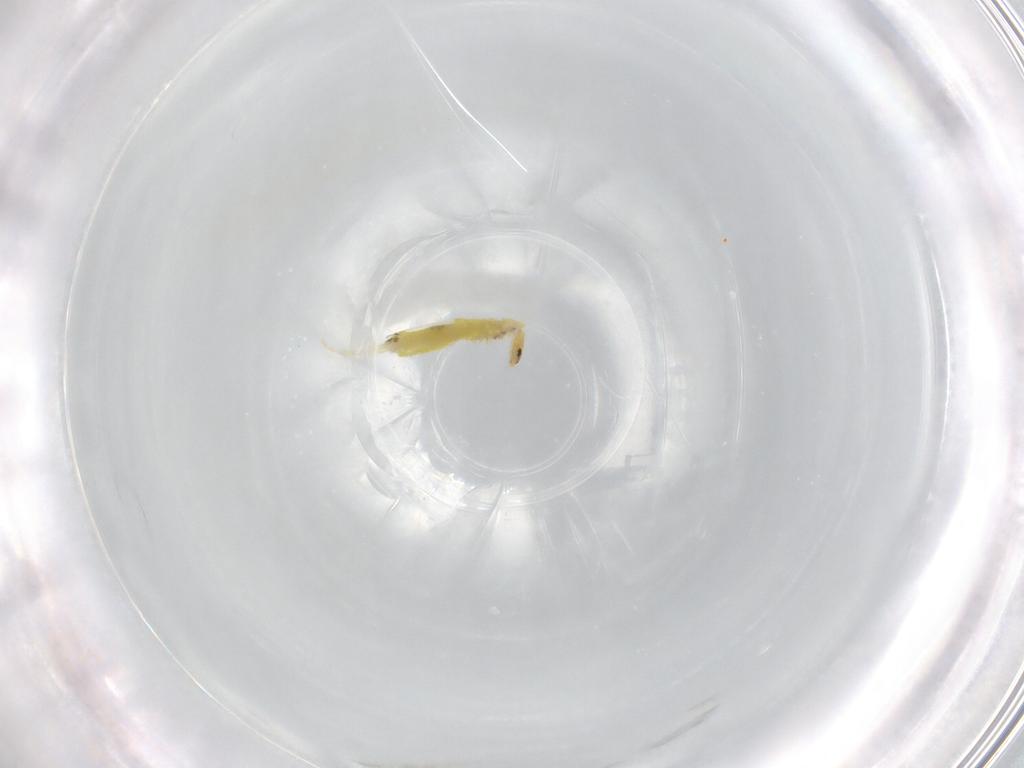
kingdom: Animalia
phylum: Arthropoda
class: Collembola
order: Entomobryomorpha
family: Entomobryidae
